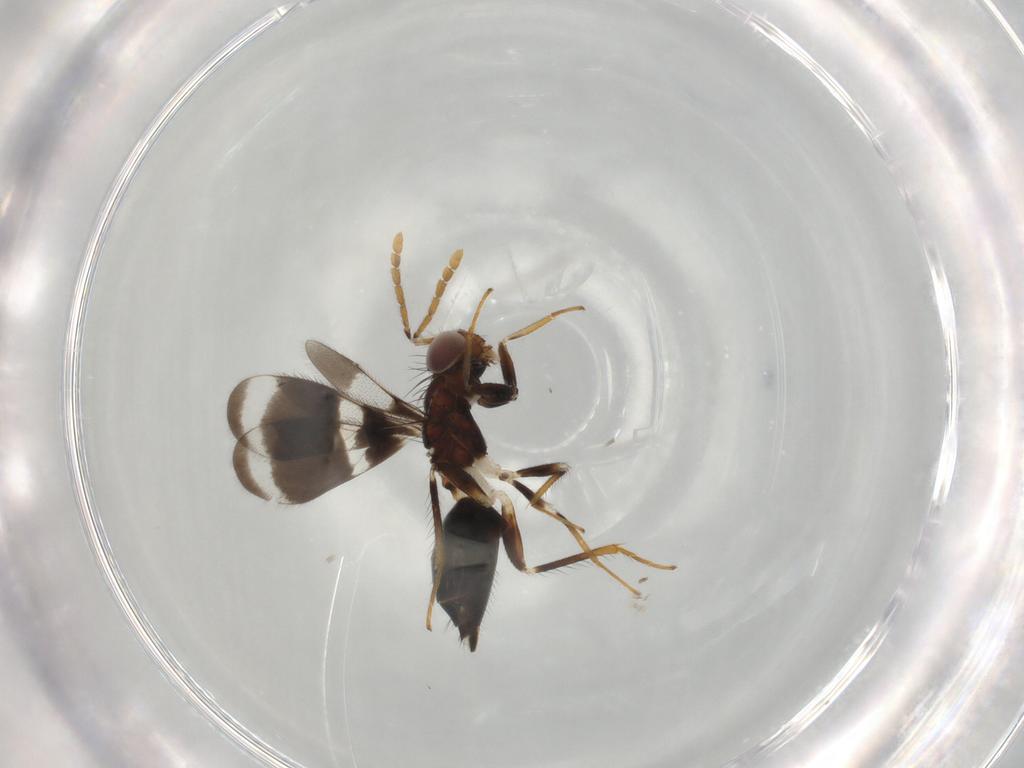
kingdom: Animalia
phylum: Arthropoda
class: Insecta
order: Hymenoptera
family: Eulophidae
